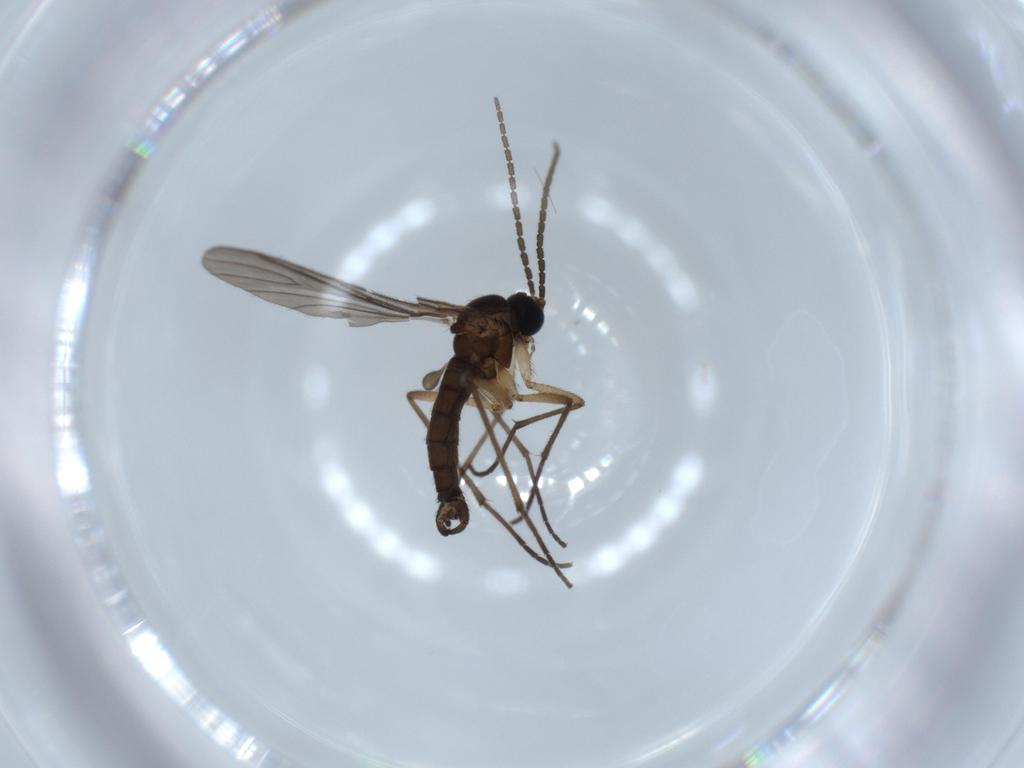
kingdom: Animalia
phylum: Arthropoda
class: Insecta
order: Diptera
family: Sciaridae
